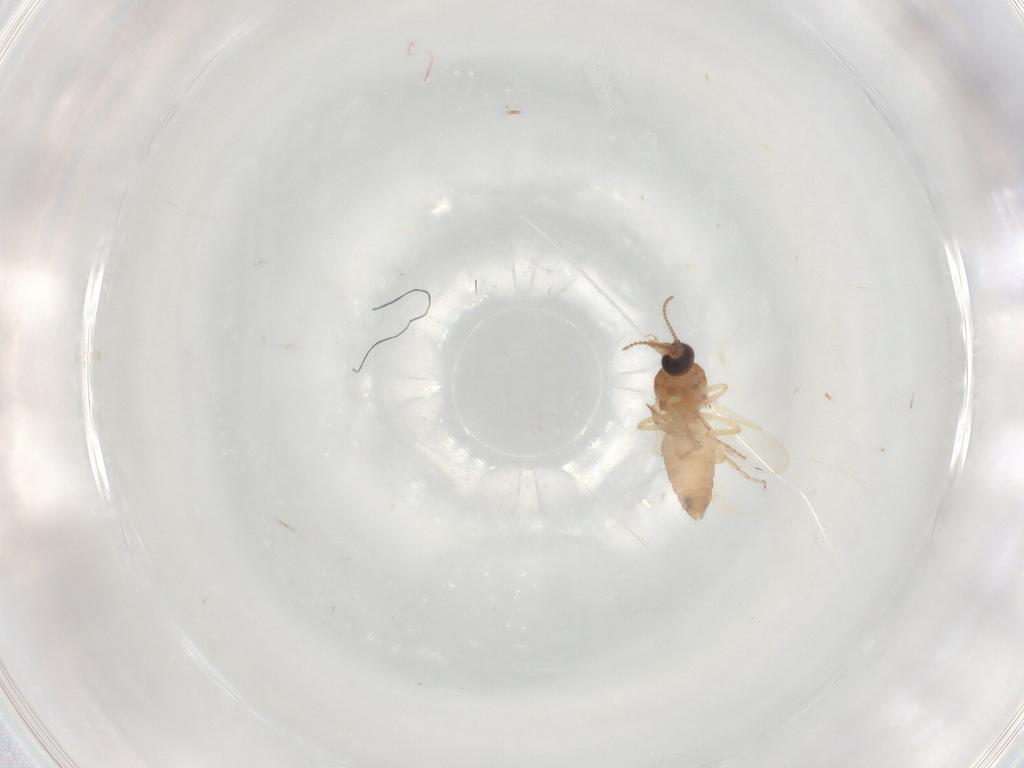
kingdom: Animalia
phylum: Arthropoda
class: Insecta
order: Diptera
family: Ceratopogonidae
